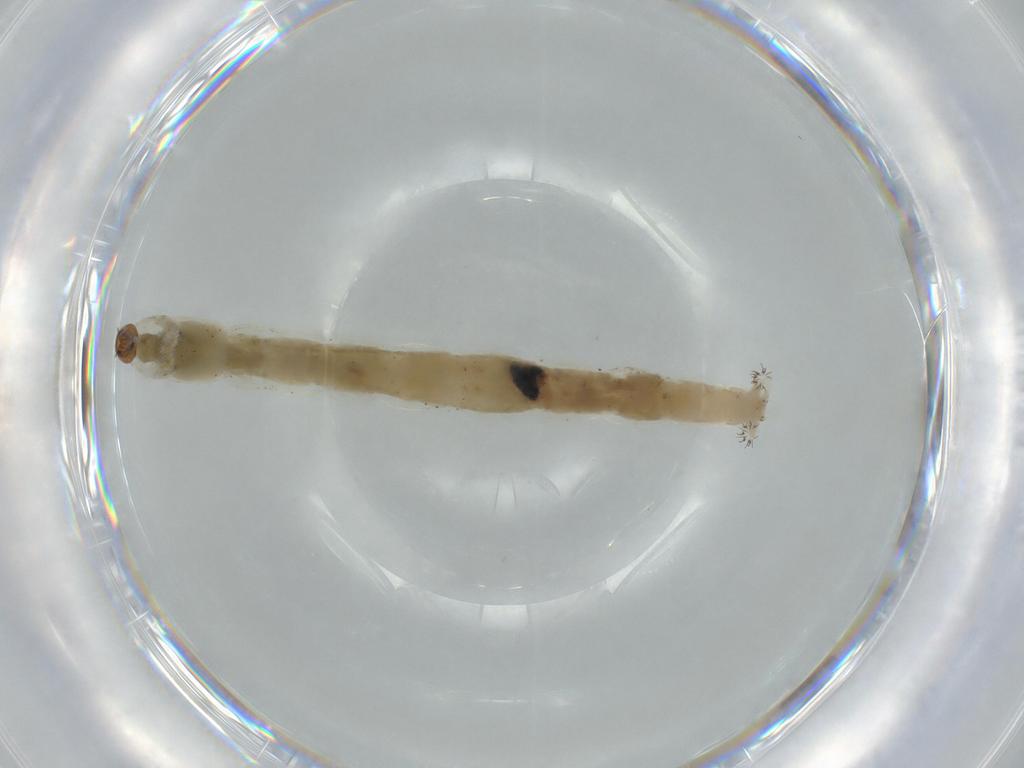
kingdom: Animalia
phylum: Arthropoda
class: Insecta
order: Diptera
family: Chironomidae
